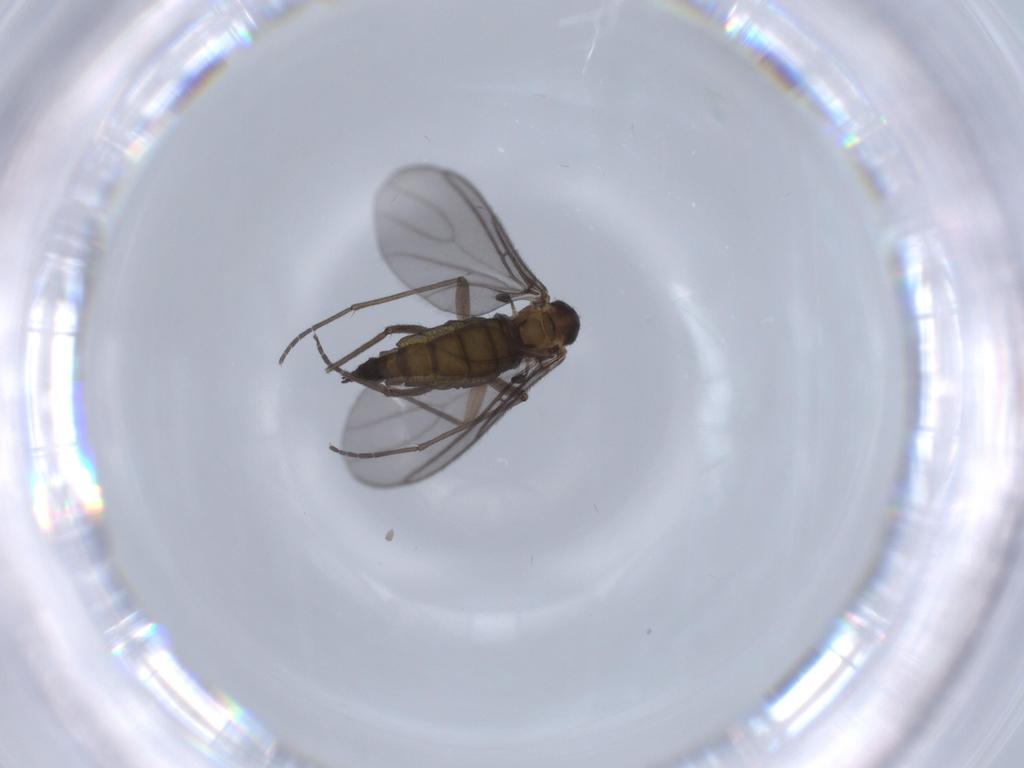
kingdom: Animalia
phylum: Arthropoda
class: Insecta
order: Diptera
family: Sciaridae
